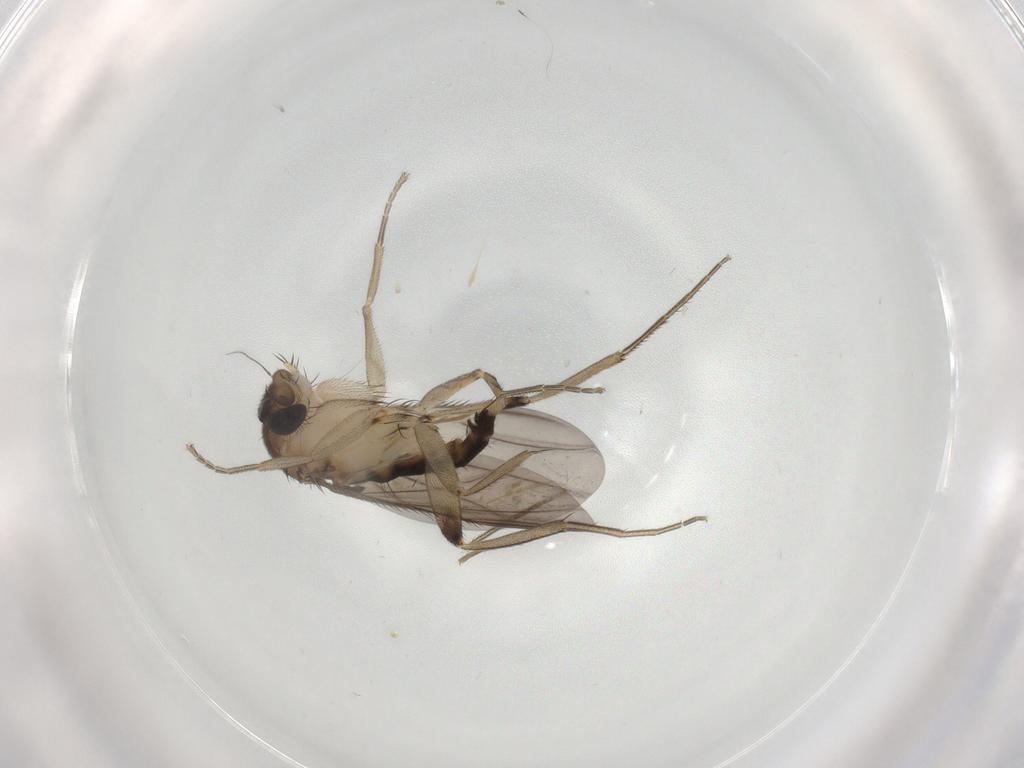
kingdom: Animalia
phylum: Arthropoda
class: Insecta
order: Diptera
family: Phoridae
